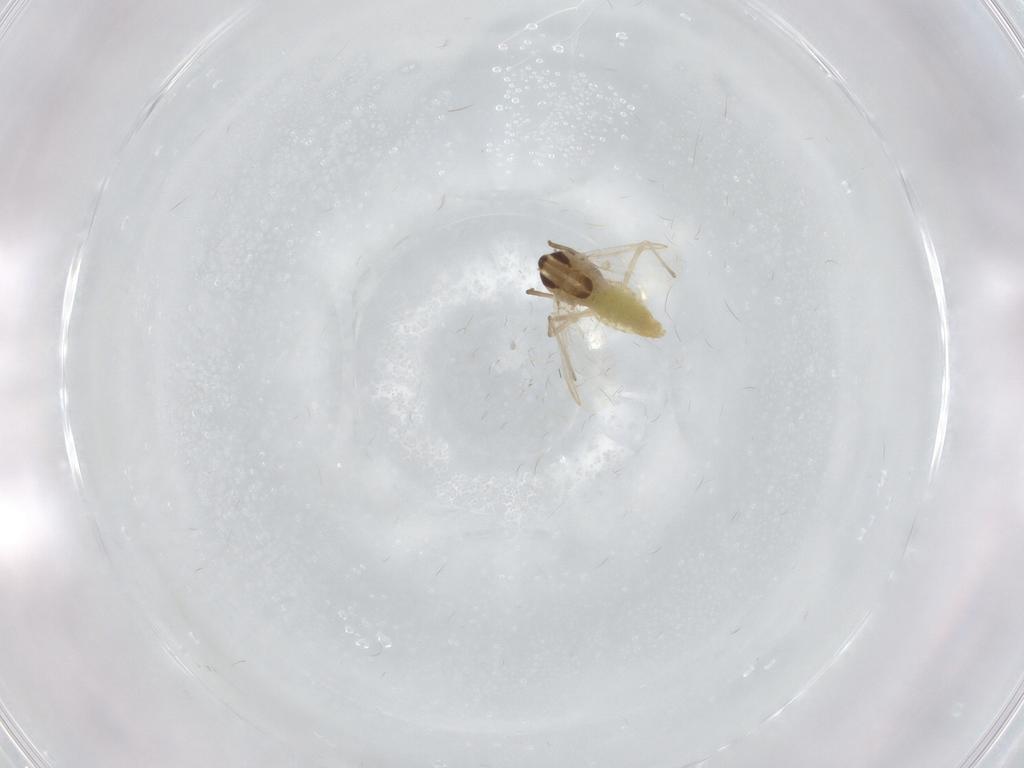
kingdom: Animalia
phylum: Arthropoda
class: Insecta
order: Diptera
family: Chironomidae
